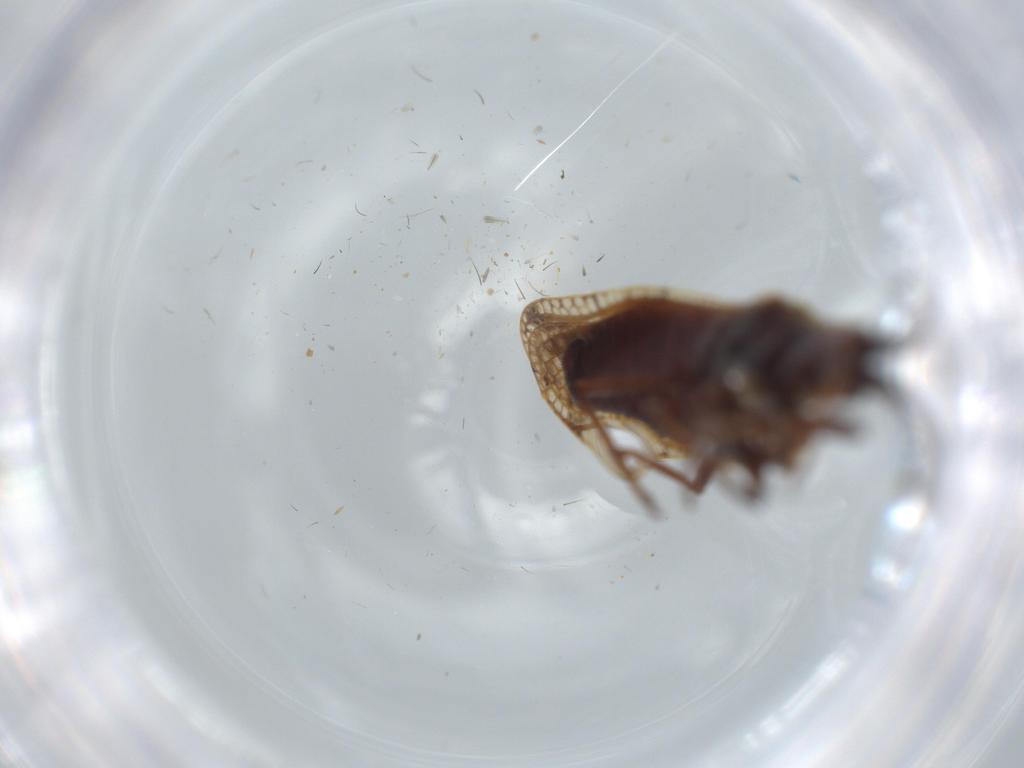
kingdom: Animalia
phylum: Arthropoda
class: Insecta
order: Hemiptera
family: Tingidae
